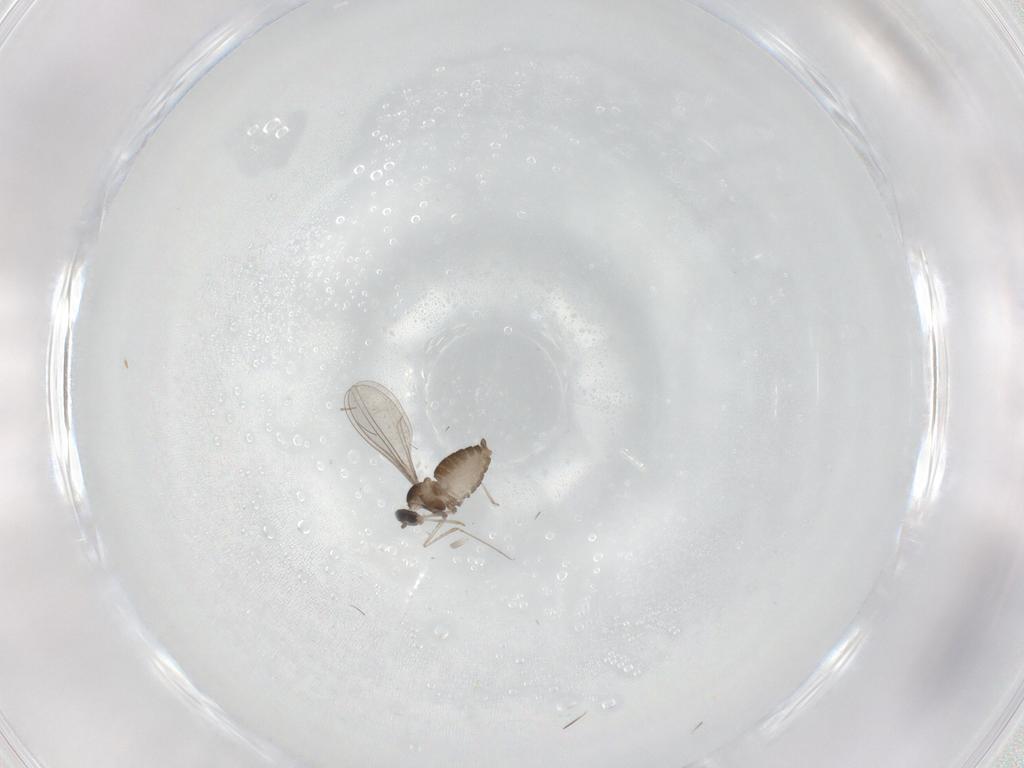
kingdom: Animalia
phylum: Arthropoda
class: Insecta
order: Diptera
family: Cecidomyiidae
